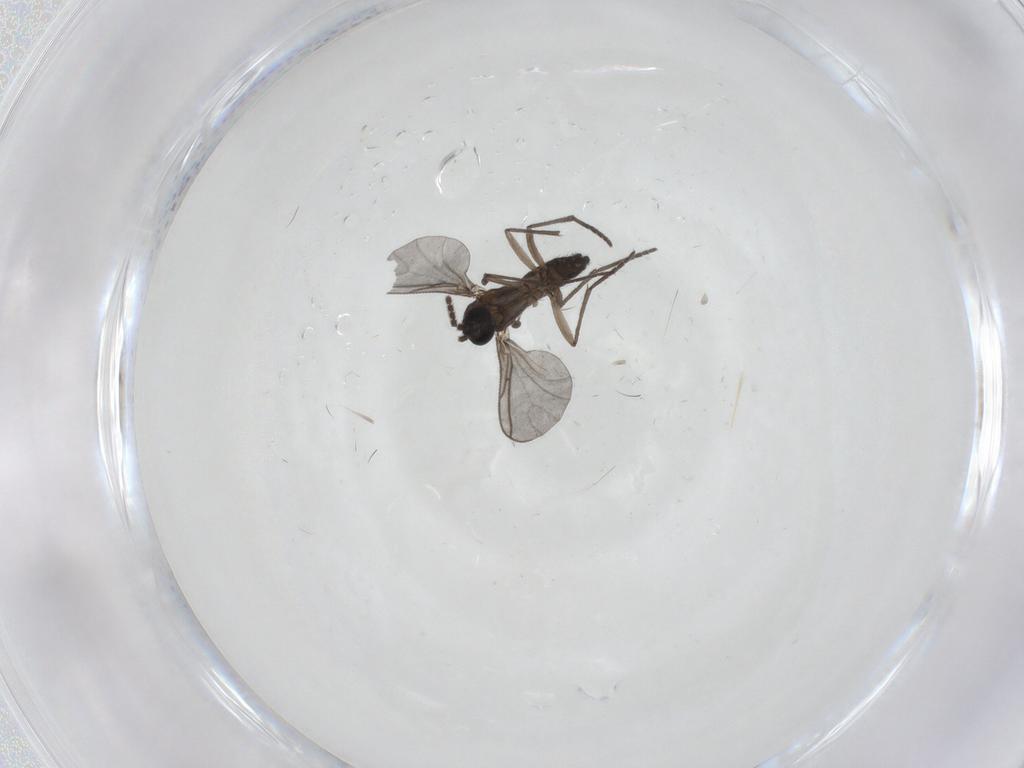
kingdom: Animalia
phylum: Arthropoda
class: Insecta
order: Diptera
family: Sciaridae
